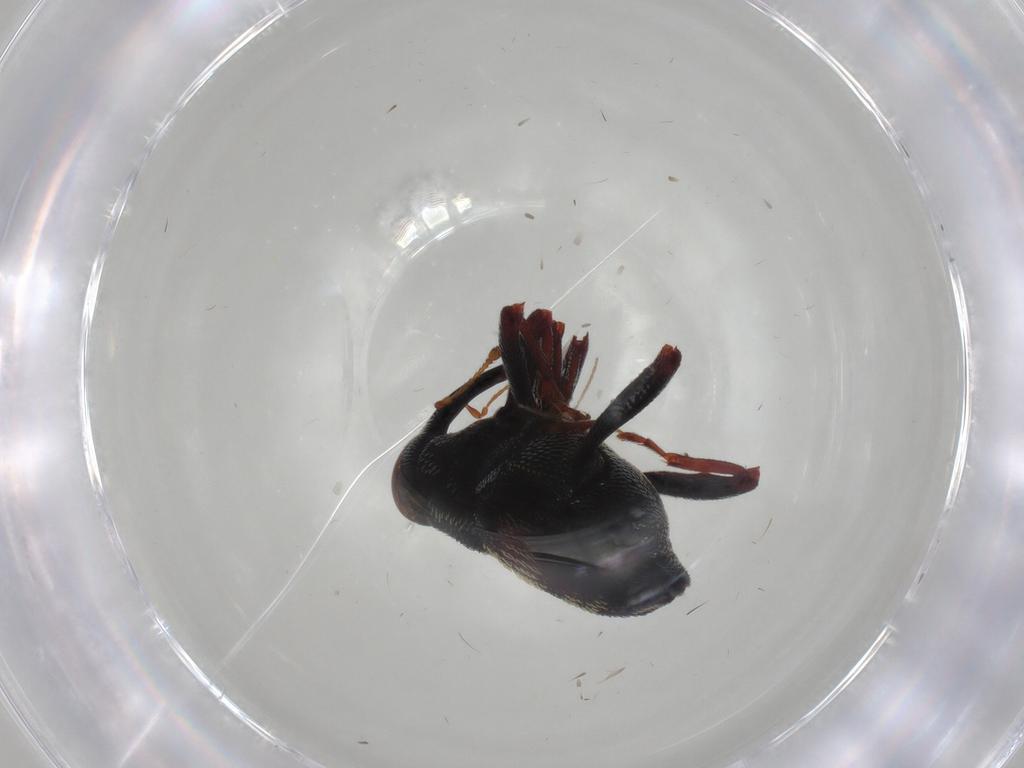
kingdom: Animalia
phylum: Arthropoda
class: Insecta
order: Coleoptera
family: Curculionidae
